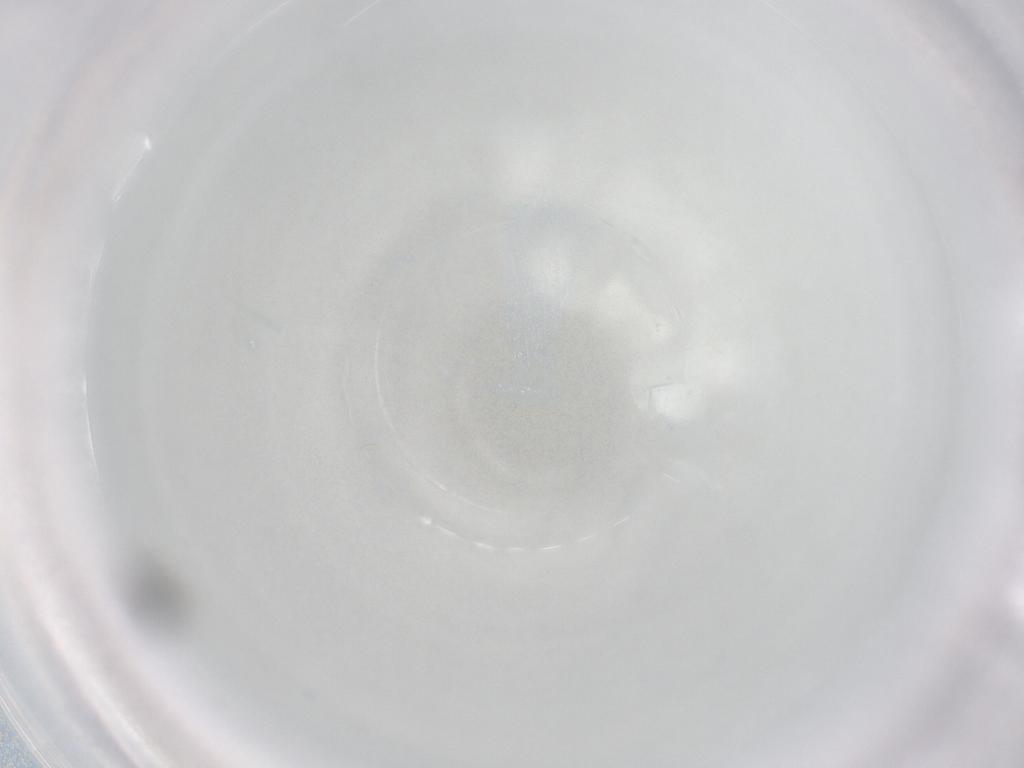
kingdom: Animalia
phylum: Arthropoda
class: Insecta
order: Hymenoptera
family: Scelionidae
